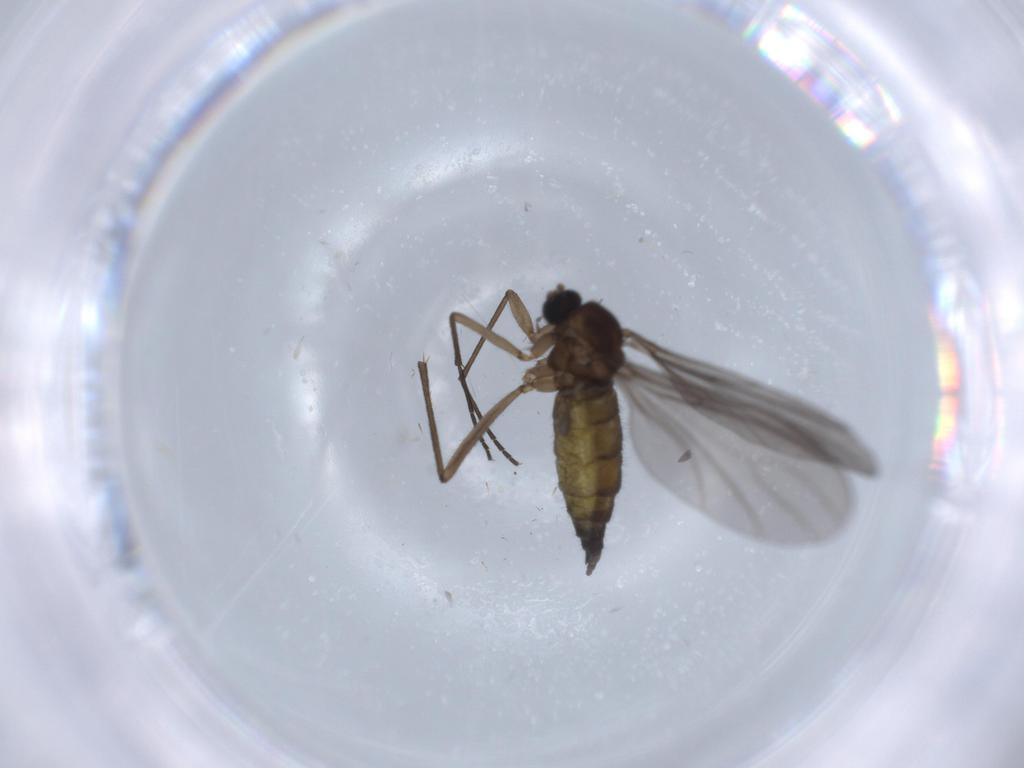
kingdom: Animalia
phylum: Arthropoda
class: Insecta
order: Diptera
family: Sciaridae
